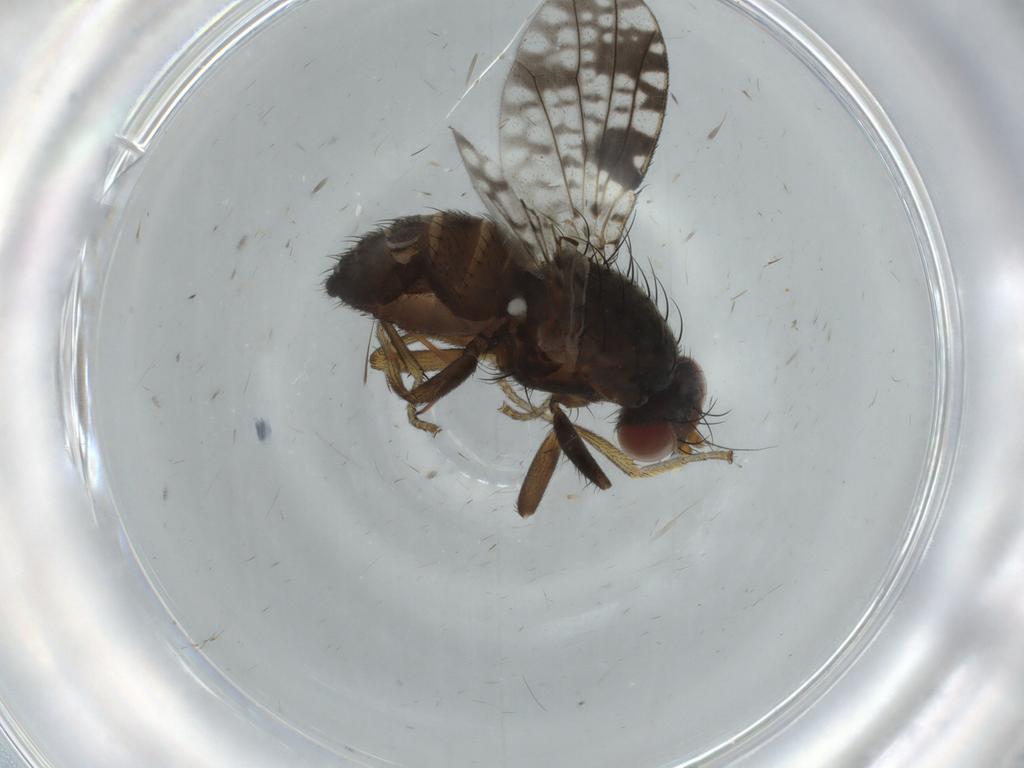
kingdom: Animalia
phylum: Arthropoda
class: Insecta
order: Diptera
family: Tephritidae
